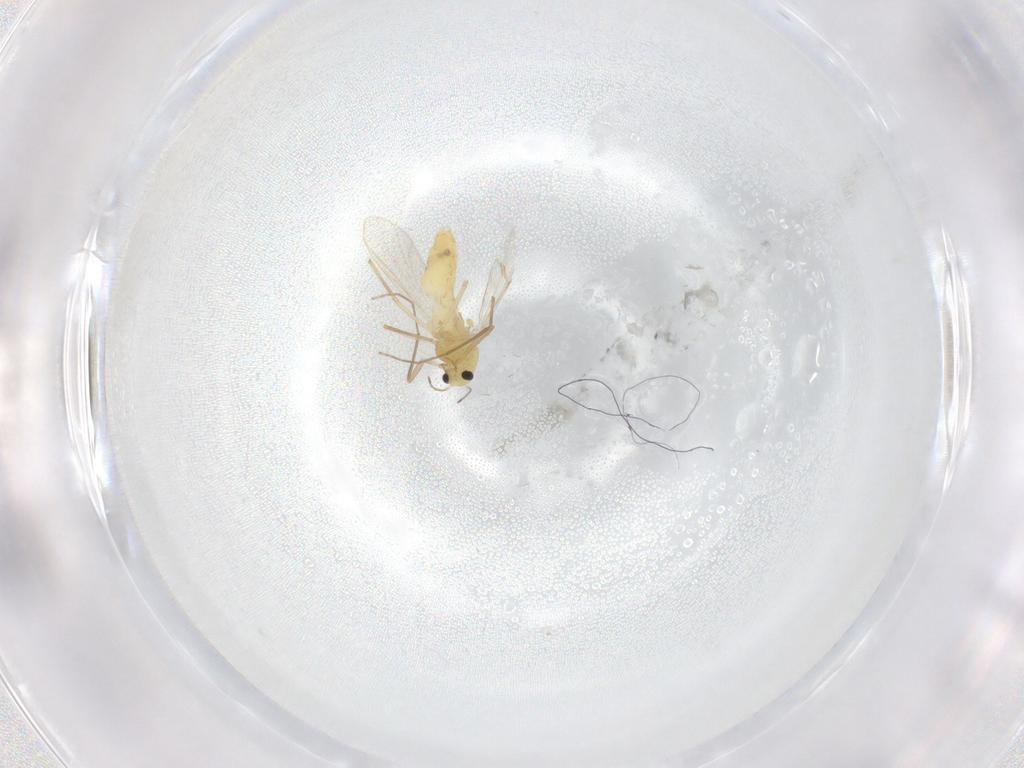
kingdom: Animalia
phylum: Arthropoda
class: Insecta
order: Diptera
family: Chironomidae
